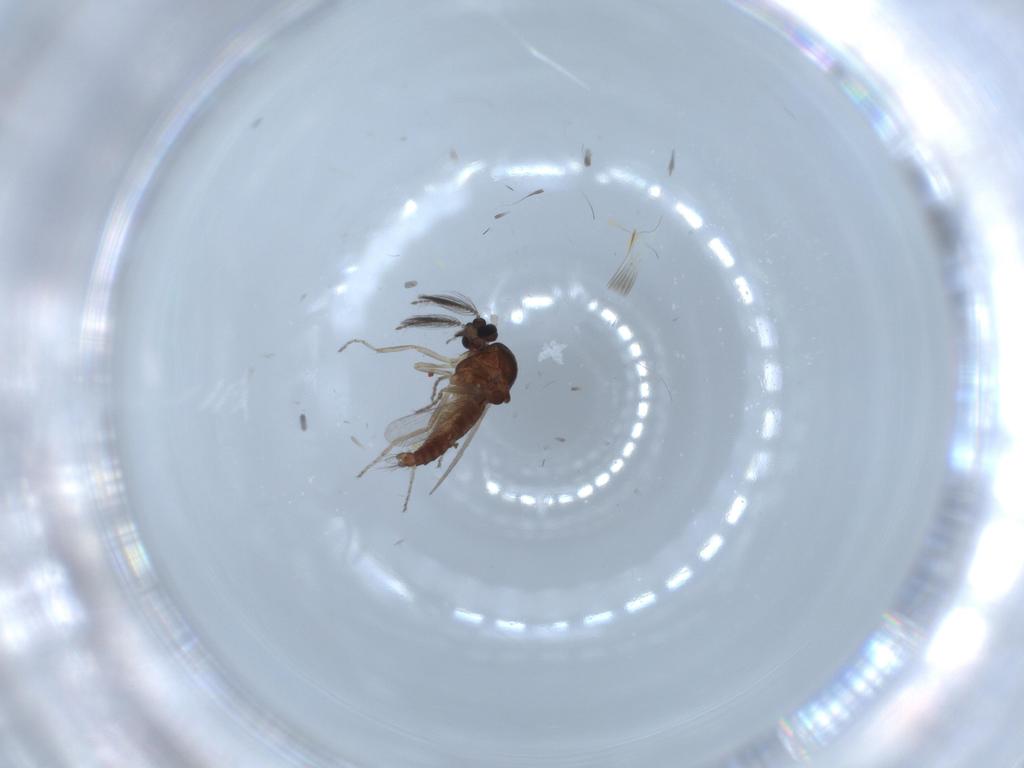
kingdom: Animalia
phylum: Arthropoda
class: Insecta
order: Diptera
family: Ceratopogonidae
